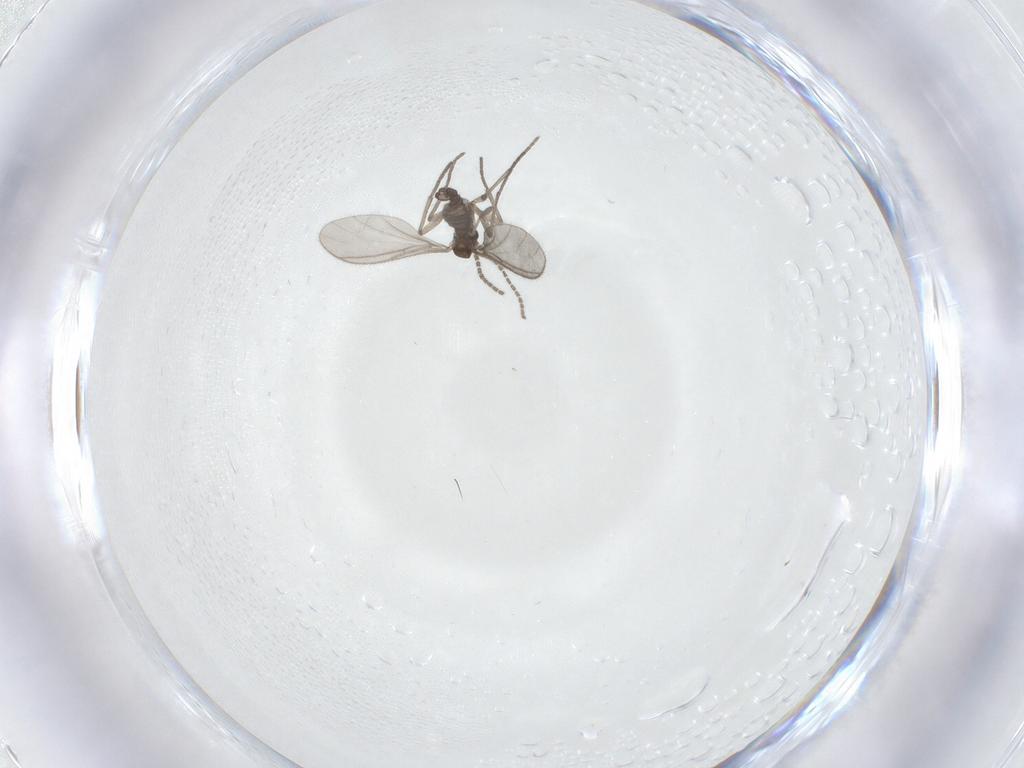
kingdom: Animalia
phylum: Arthropoda
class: Insecta
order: Diptera
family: Sciaridae
